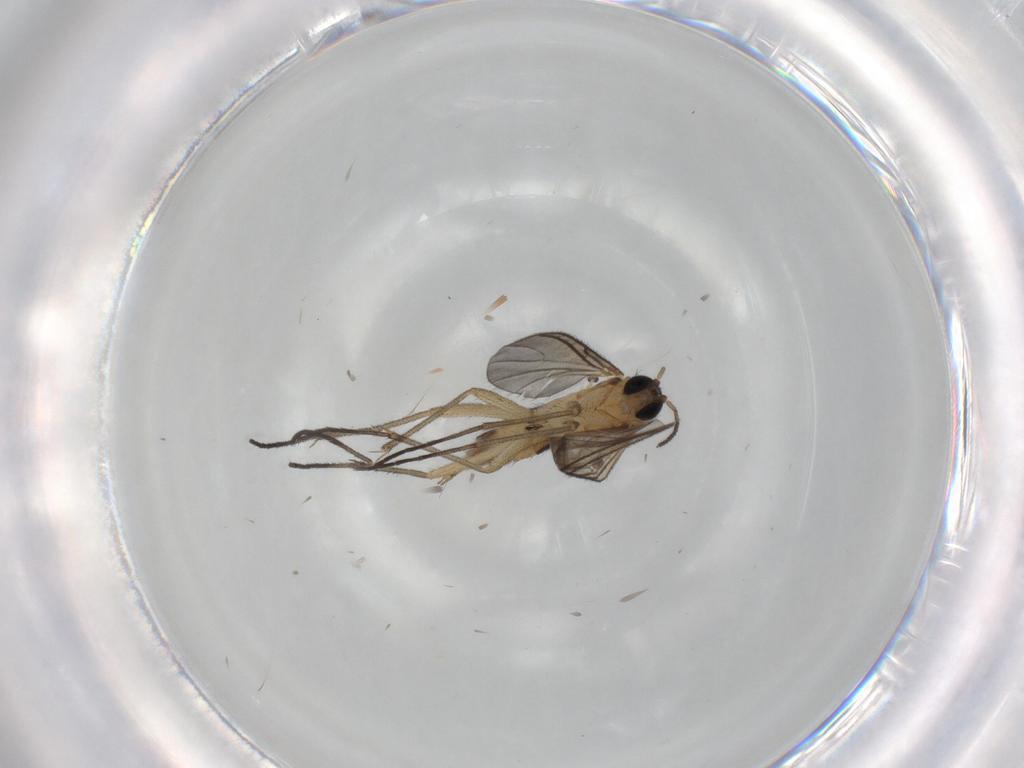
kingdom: Animalia
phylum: Arthropoda
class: Insecta
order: Diptera
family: Sciaridae
